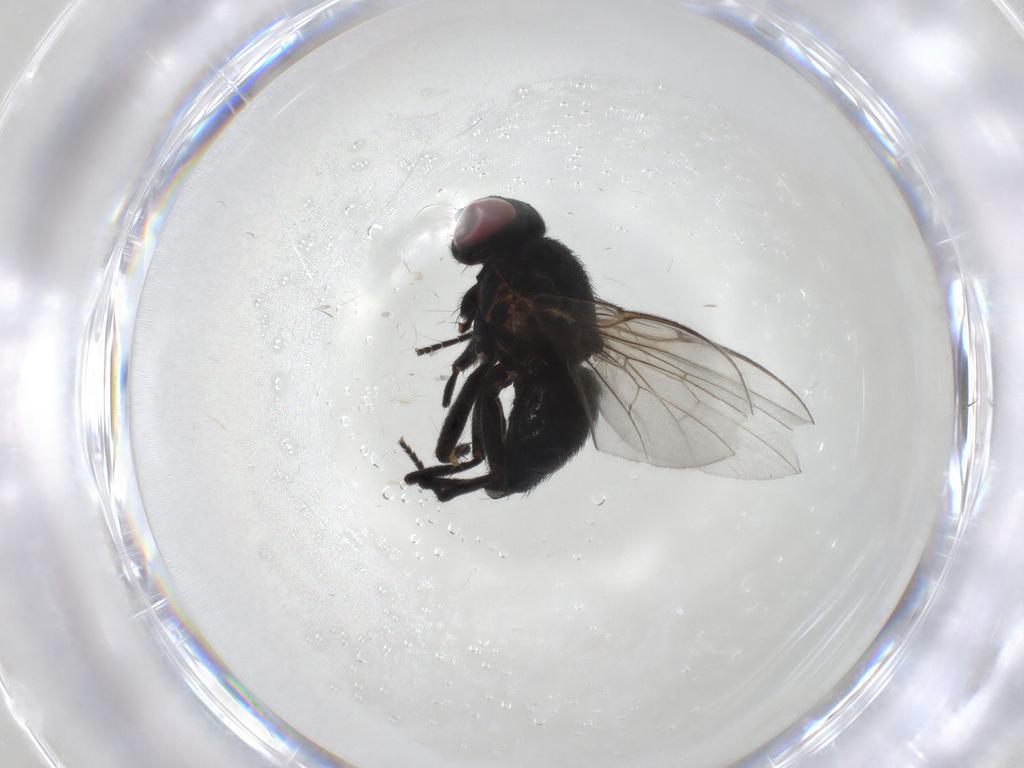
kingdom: Animalia
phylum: Arthropoda
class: Insecta
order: Diptera
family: Agromyzidae
